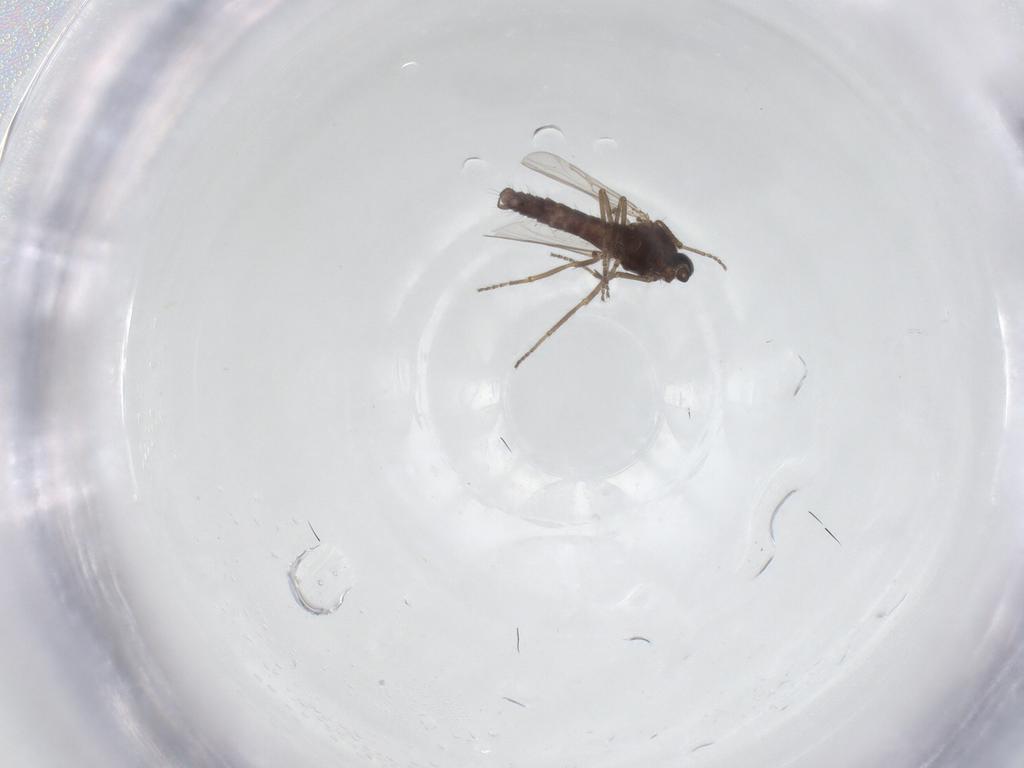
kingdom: Animalia
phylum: Arthropoda
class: Insecta
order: Diptera
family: Ceratopogonidae
